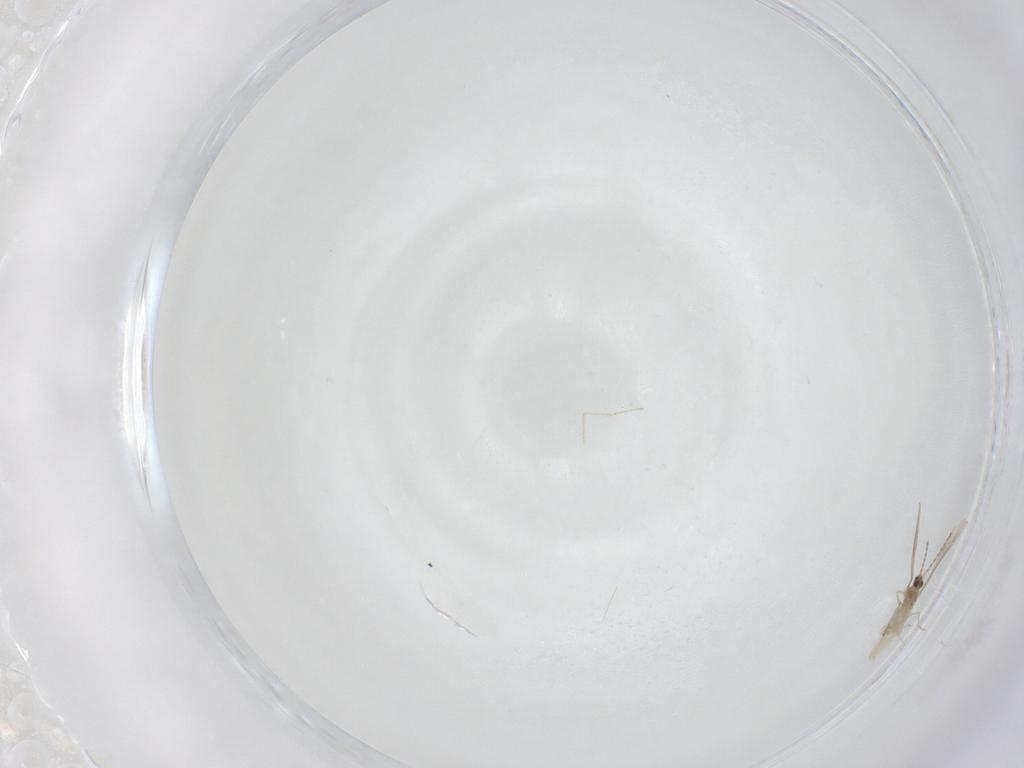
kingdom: Animalia
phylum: Arthropoda
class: Insecta
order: Diptera
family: Cecidomyiidae
